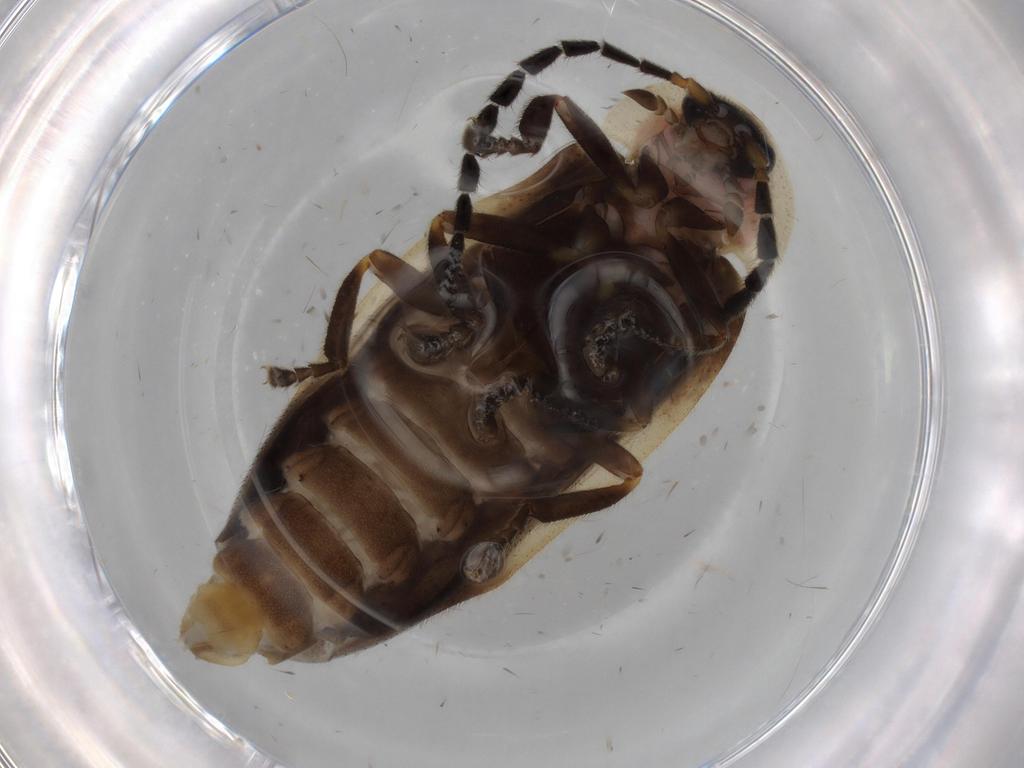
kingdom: Animalia
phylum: Arthropoda
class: Insecta
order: Coleoptera
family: Lampyridae
